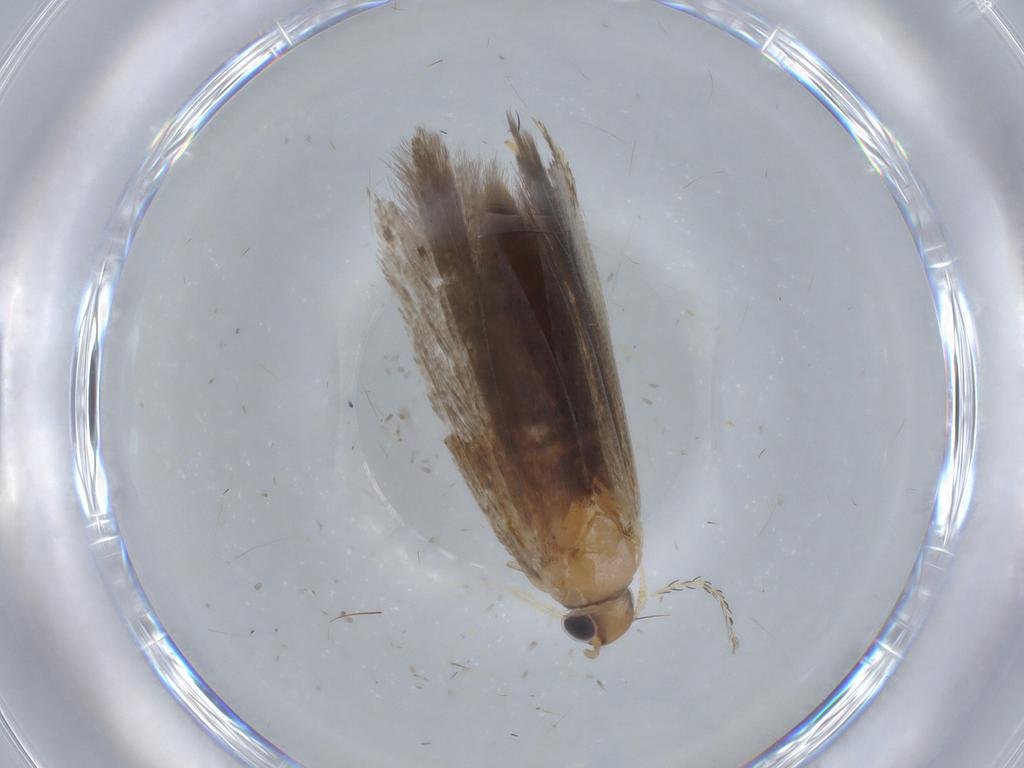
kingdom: Animalia
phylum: Arthropoda
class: Insecta
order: Lepidoptera
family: Gelechiidae
